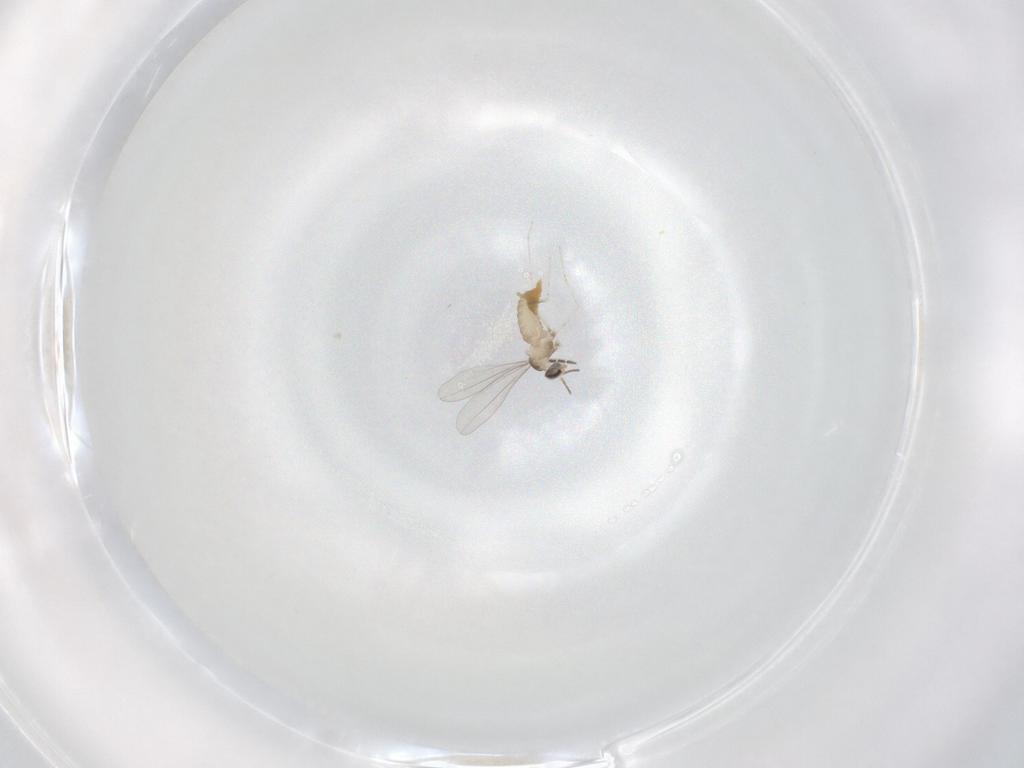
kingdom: Animalia
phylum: Arthropoda
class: Insecta
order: Diptera
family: Cecidomyiidae
